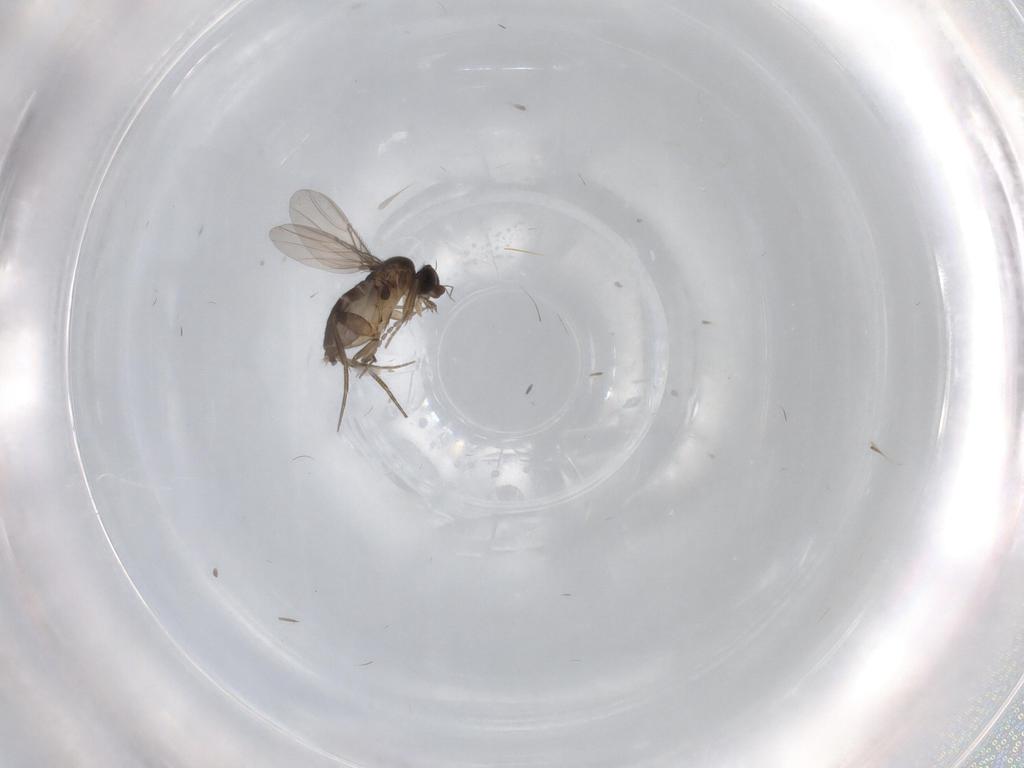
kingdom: Animalia
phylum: Arthropoda
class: Insecta
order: Diptera
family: Phoridae
